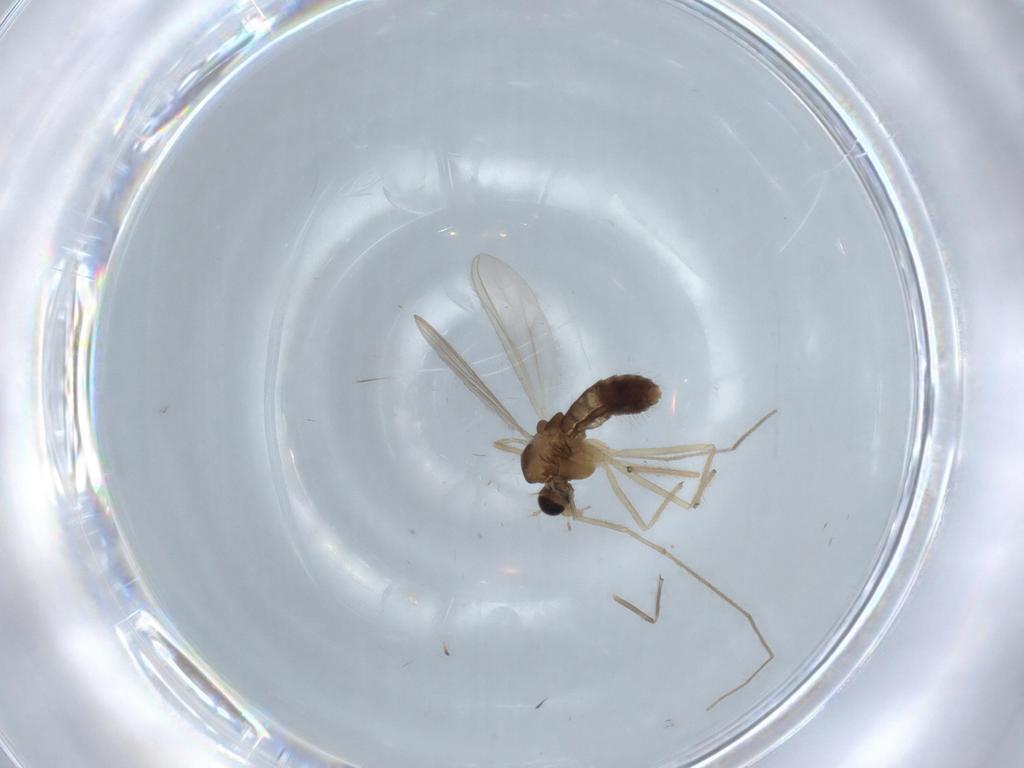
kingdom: Animalia
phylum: Arthropoda
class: Insecta
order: Diptera
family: Chironomidae
